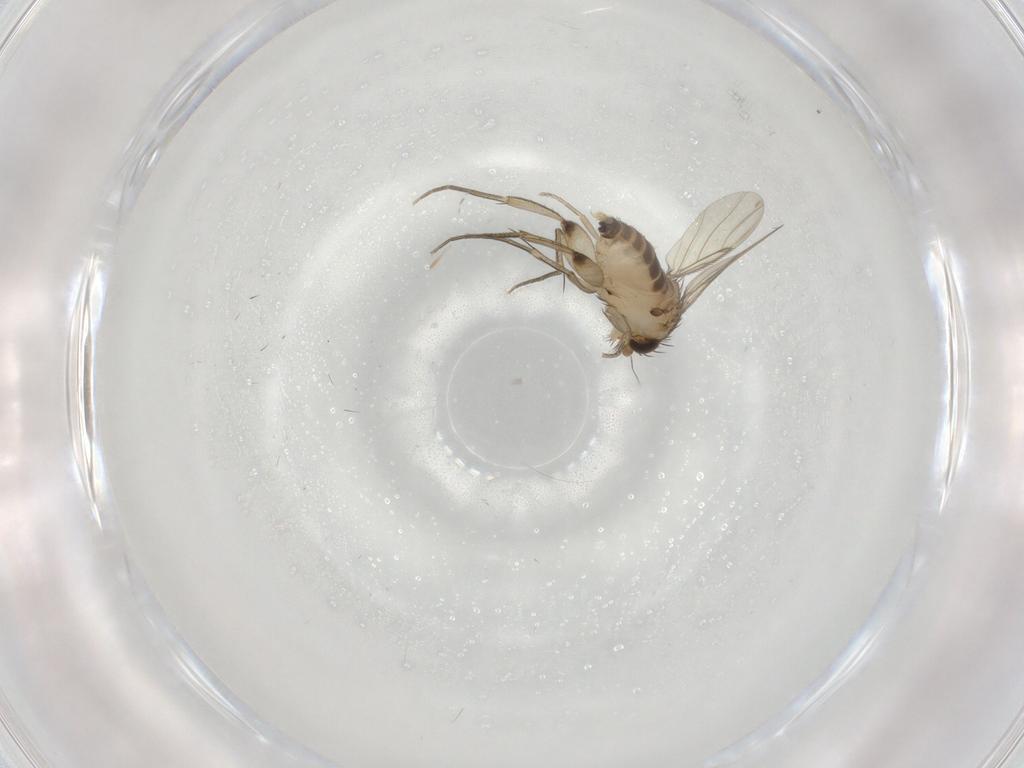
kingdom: Animalia
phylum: Arthropoda
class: Insecta
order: Diptera
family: Phoridae
